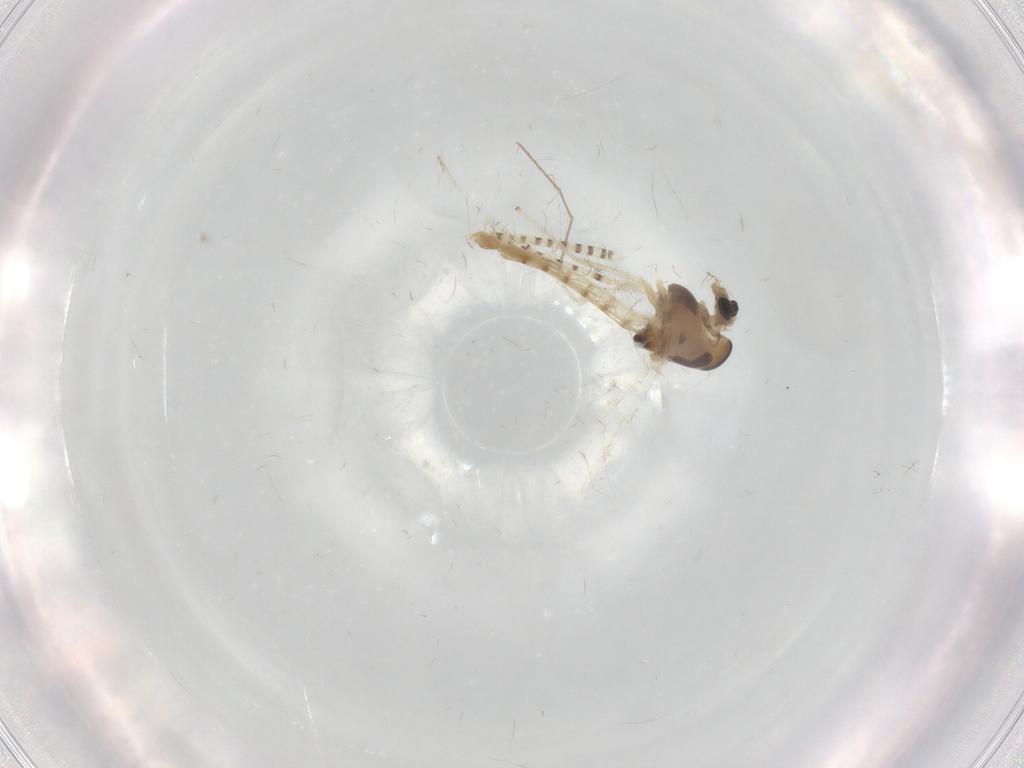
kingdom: Animalia
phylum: Arthropoda
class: Insecta
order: Diptera
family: Chaoboridae
